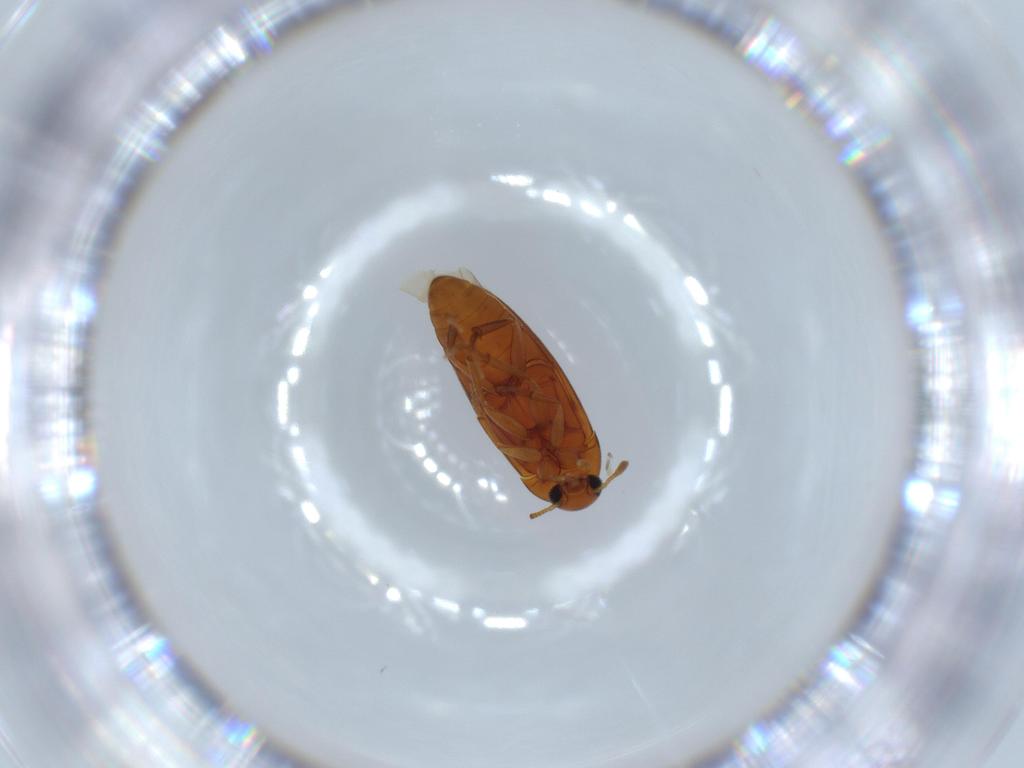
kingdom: Animalia
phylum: Arthropoda
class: Insecta
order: Coleoptera
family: Scraptiidae
